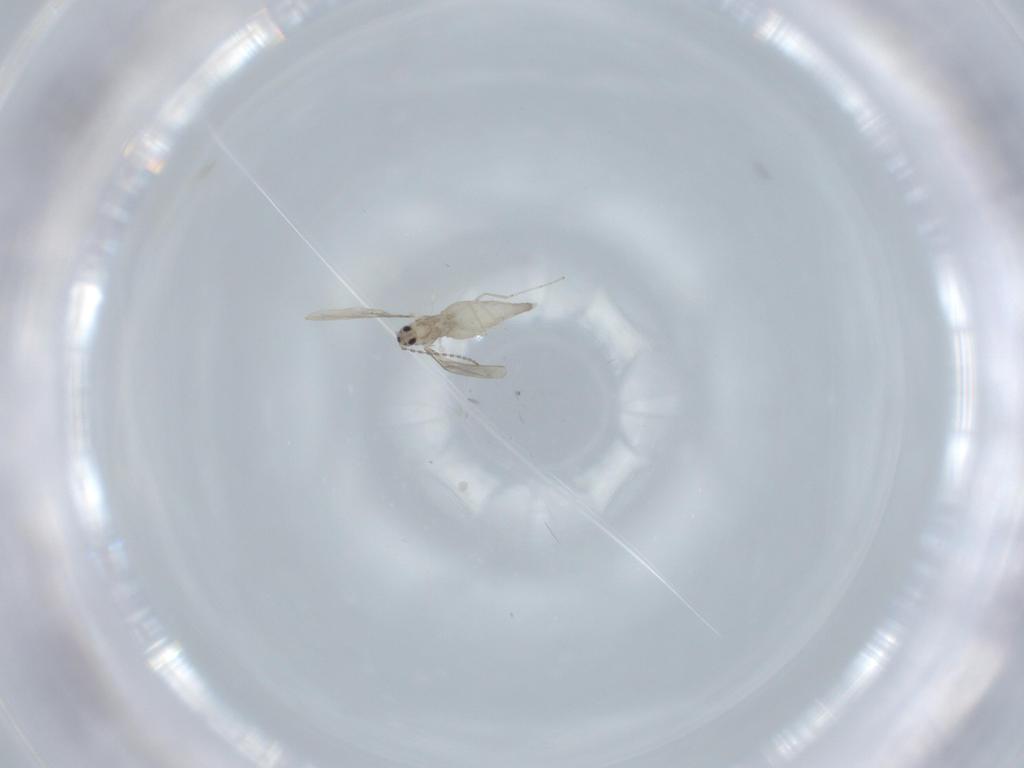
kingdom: Animalia
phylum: Arthropoda
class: Insecta
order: Diptera
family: Cecidomyiidae
